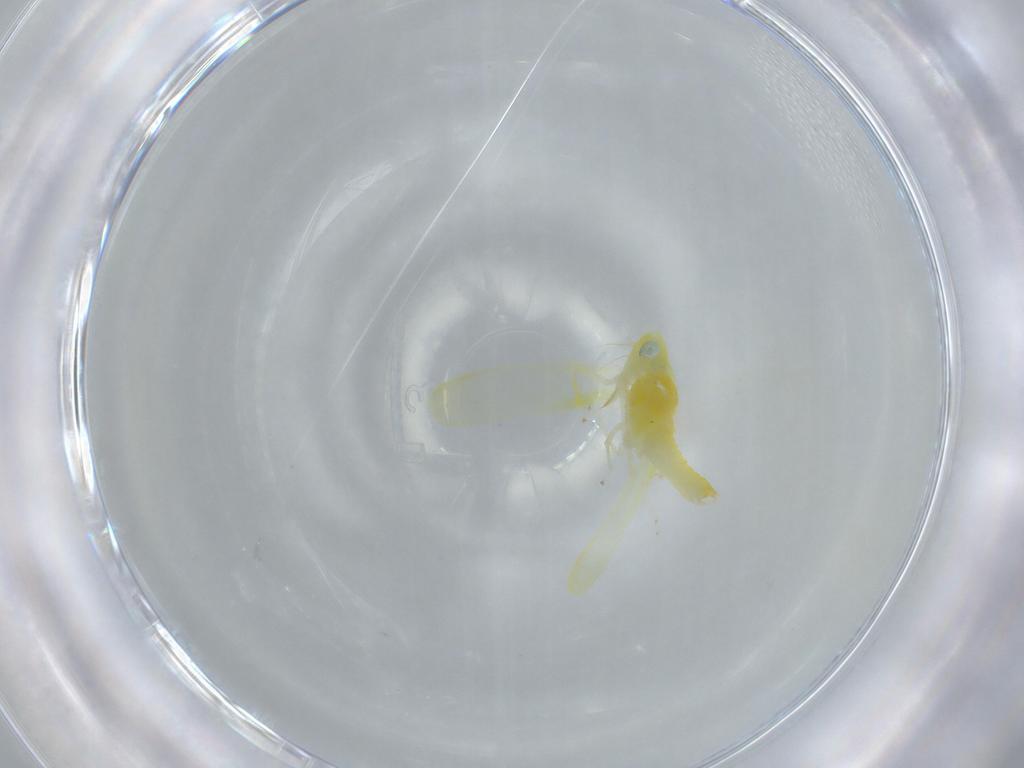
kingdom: Animalia
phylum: Arthropoda
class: Insecta
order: Hemiptera
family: Cicadellidae
